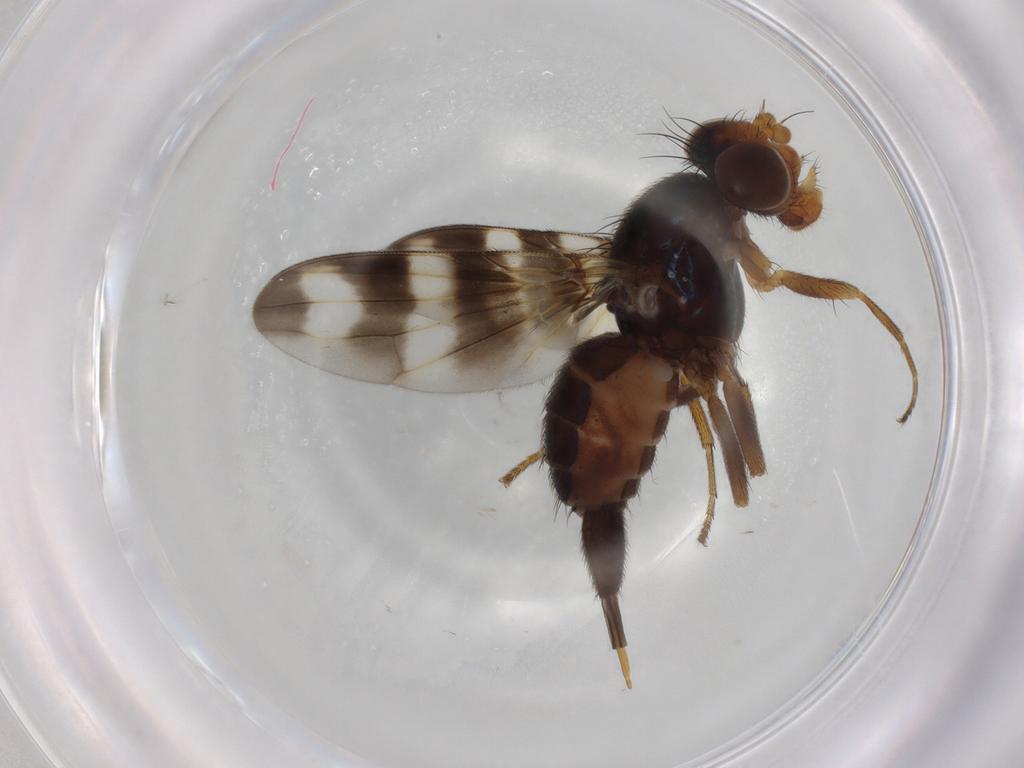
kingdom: Animalia
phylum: Arthropoda
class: Insecta
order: Diptera
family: Ulidiidae
